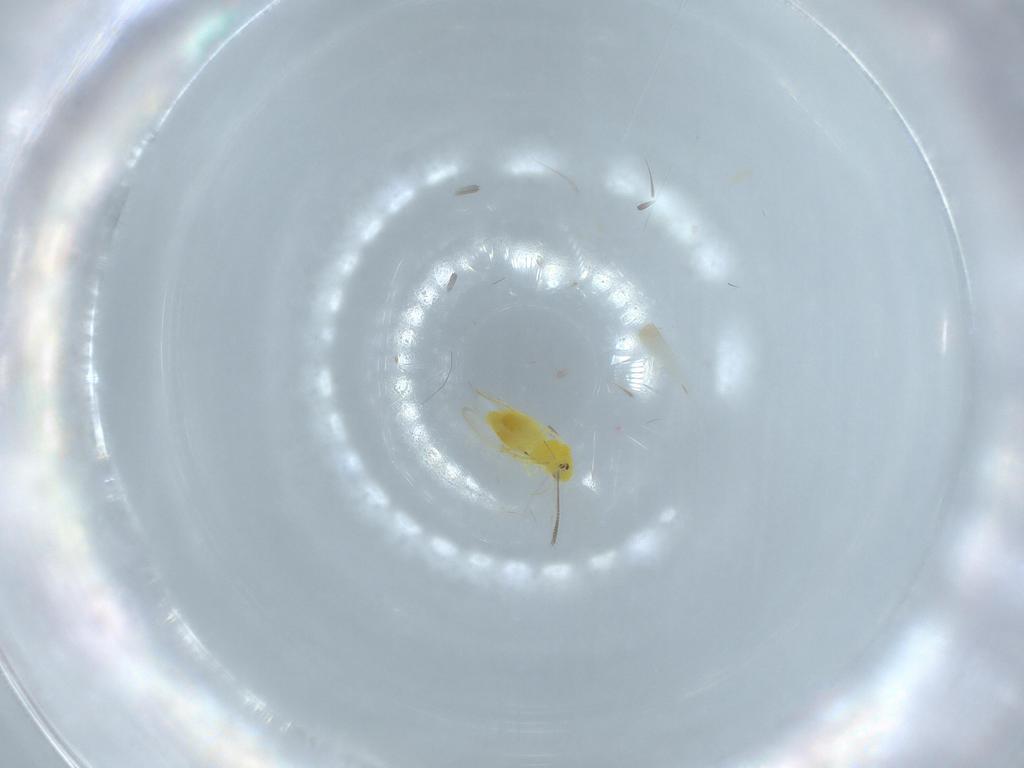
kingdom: Animalia
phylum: Arthropoda
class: Insecta
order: Hemiptera
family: Aleyrodidae
